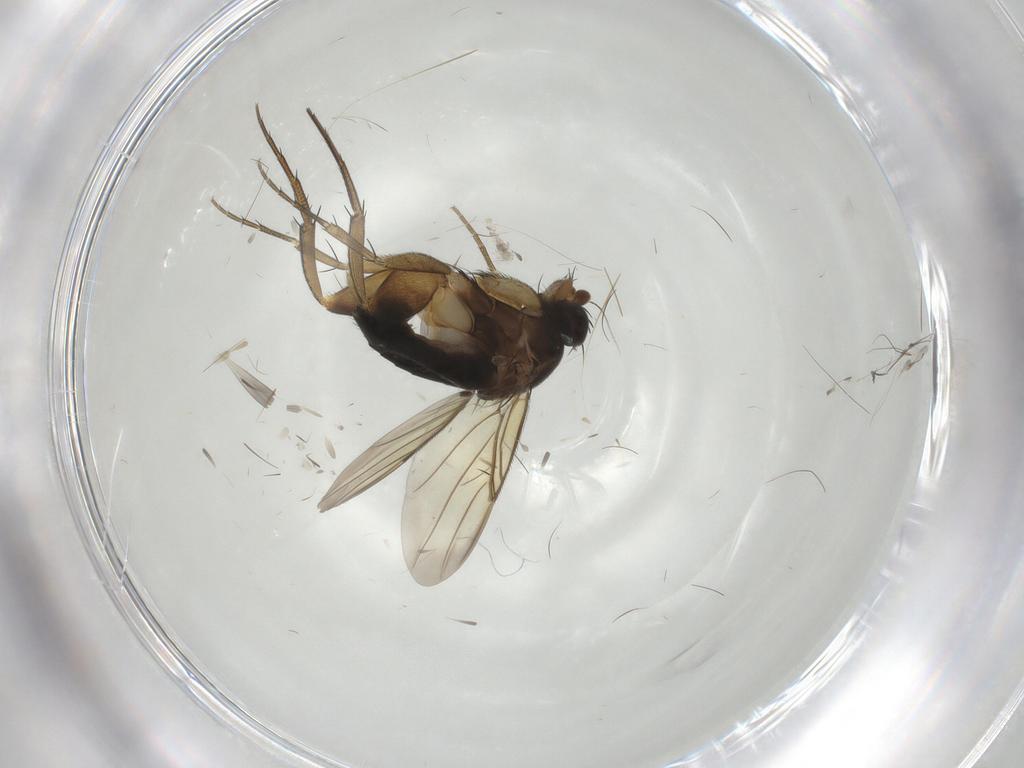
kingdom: Animalia
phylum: Arthropoda
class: Insecta
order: Diptera
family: Phoridae
